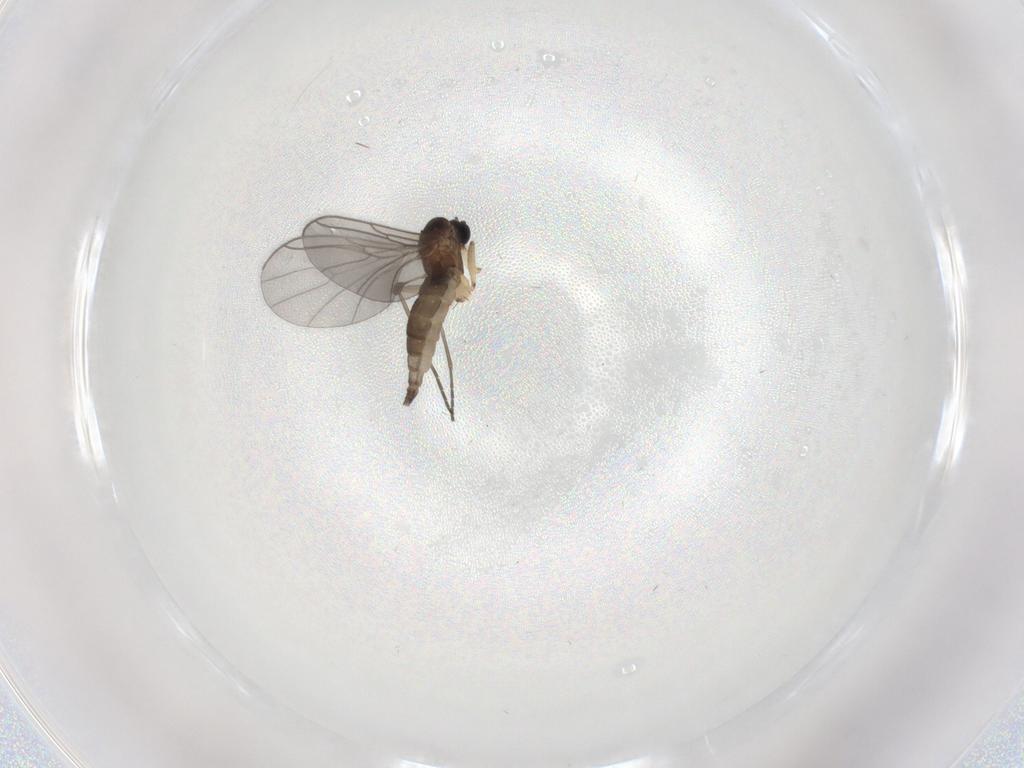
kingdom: Animalia
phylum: Arthropoda
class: Insecta
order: Diptera
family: Sciaridae
